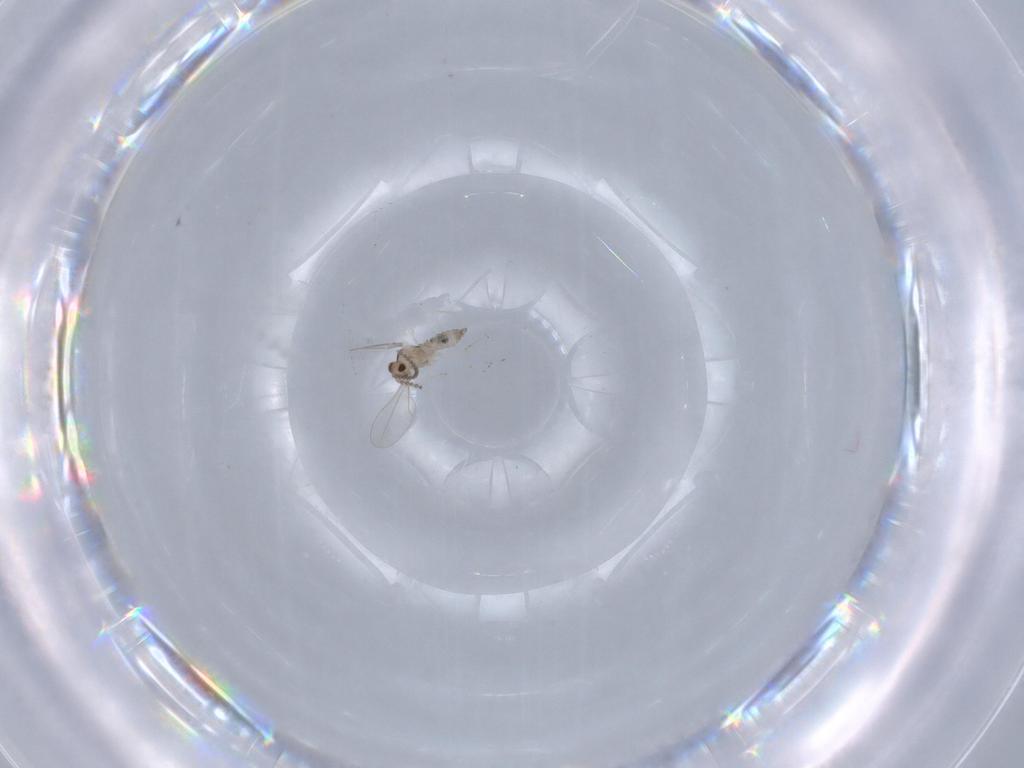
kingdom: Animalia
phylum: Arthropoda
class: Insecta
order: Diptera
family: Cecidomyiidae
